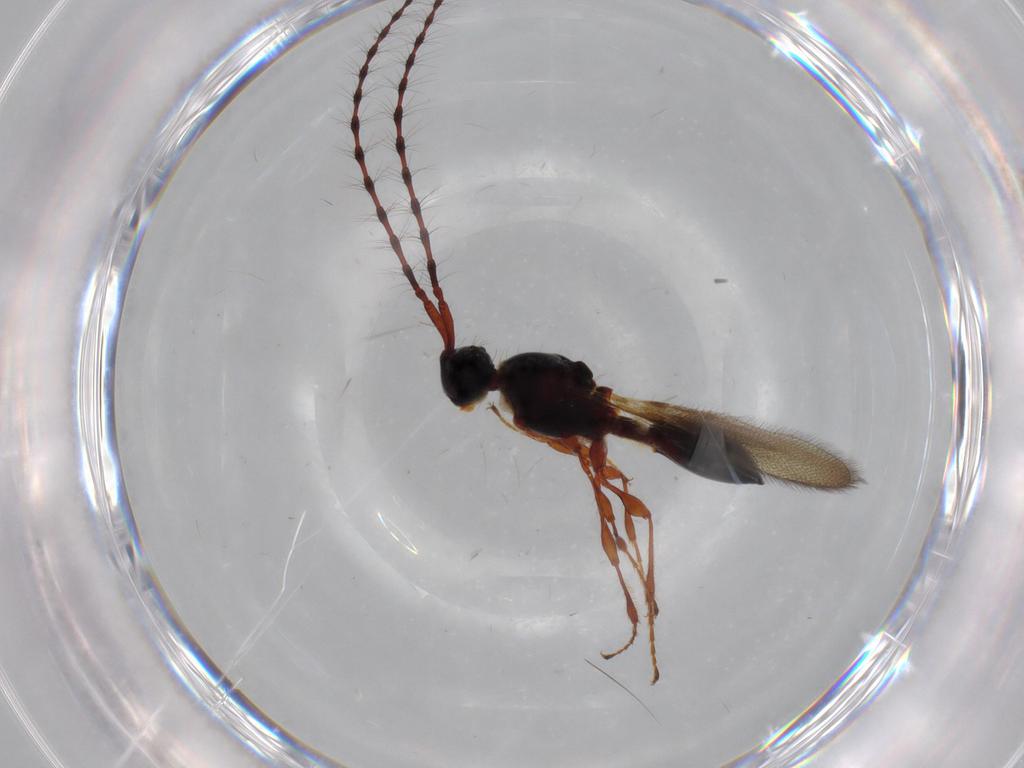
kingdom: Animalia
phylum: Arthropoda
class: Insecta
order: Hymenoptera
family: Diapriidae
